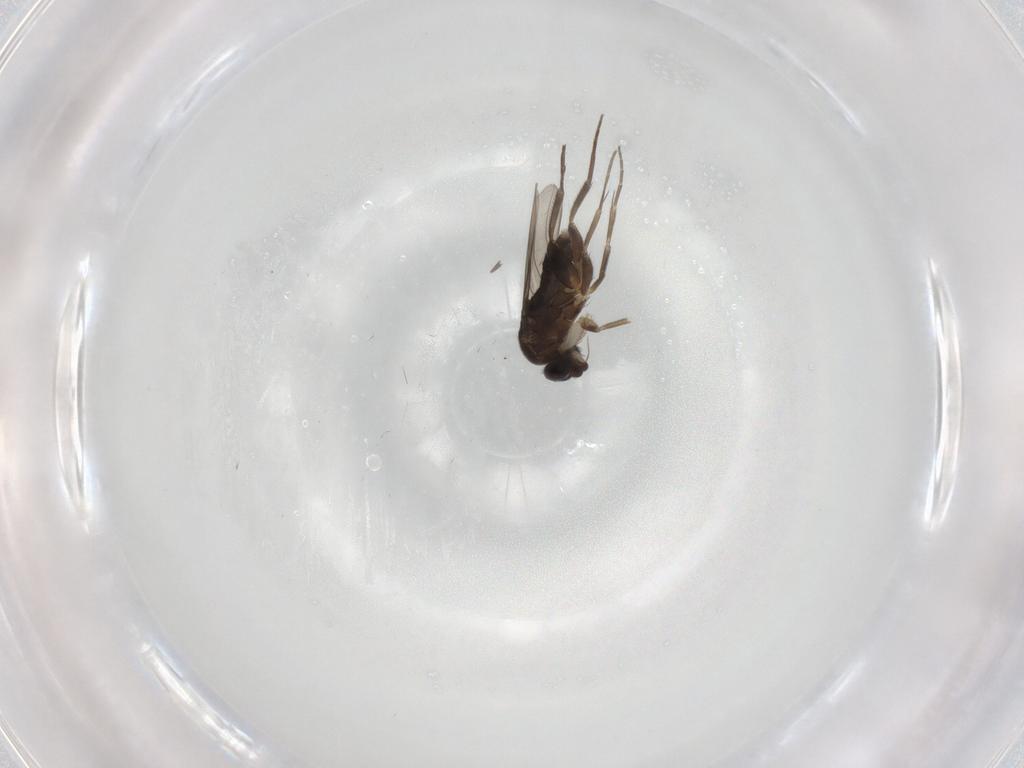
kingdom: Animalia
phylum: Arthropoda
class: Insecta
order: Diptera
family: Phoridae
